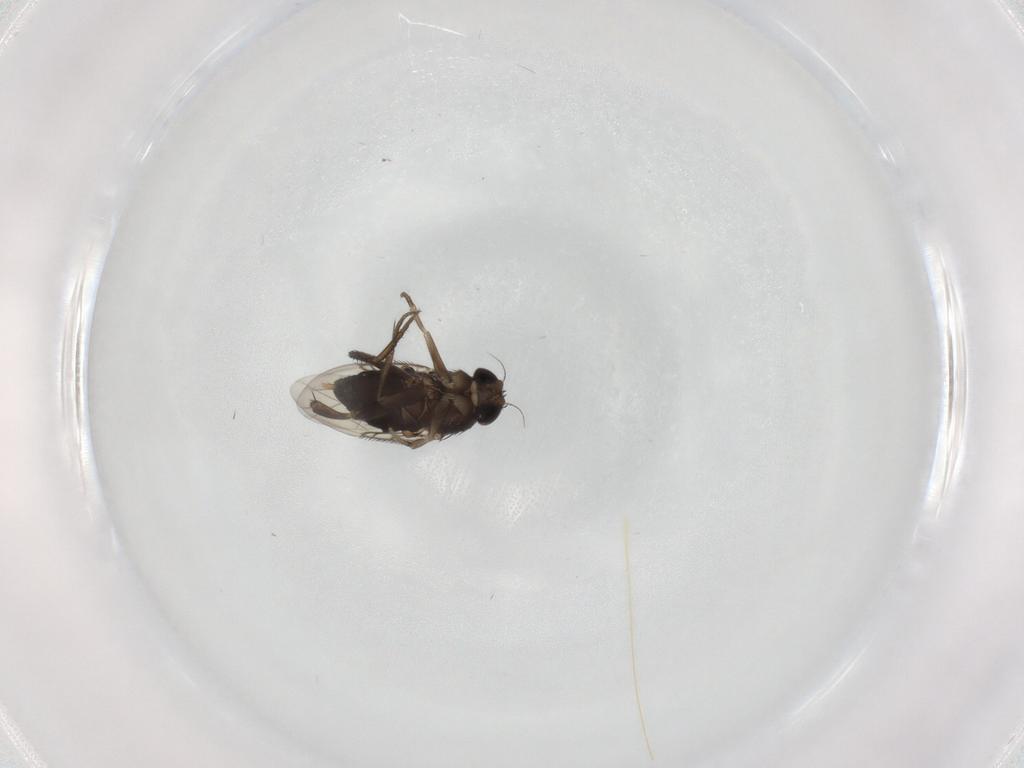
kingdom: Animalia
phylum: Arthropoda
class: Insecta
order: Diptera
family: Phoridae
